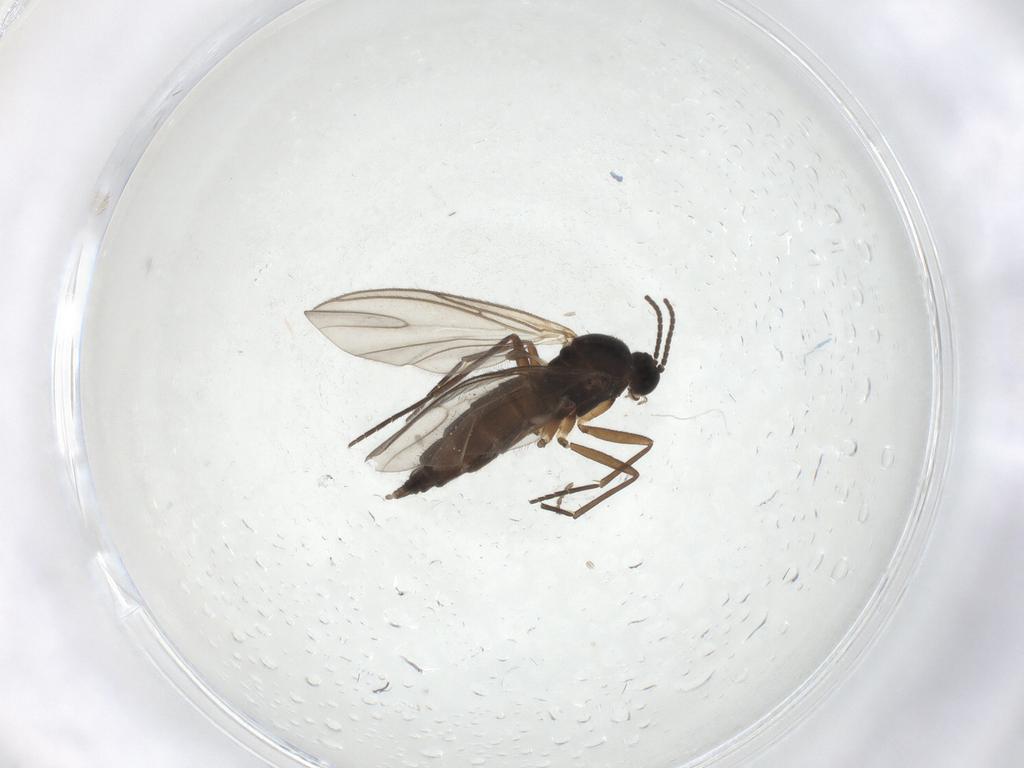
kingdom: Animalia
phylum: Arthropoda
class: Insecta
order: Diptera
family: Sciaridae
